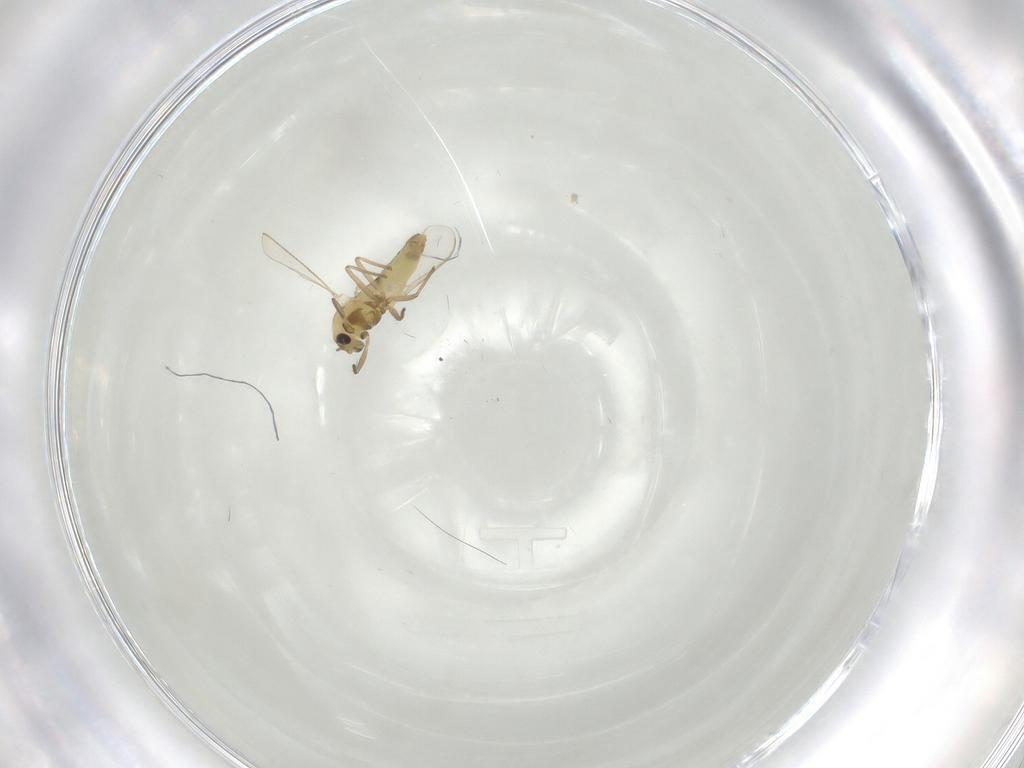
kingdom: Animalia
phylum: Arthropoda
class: Insecta
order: Diptera
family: Chironomidae
